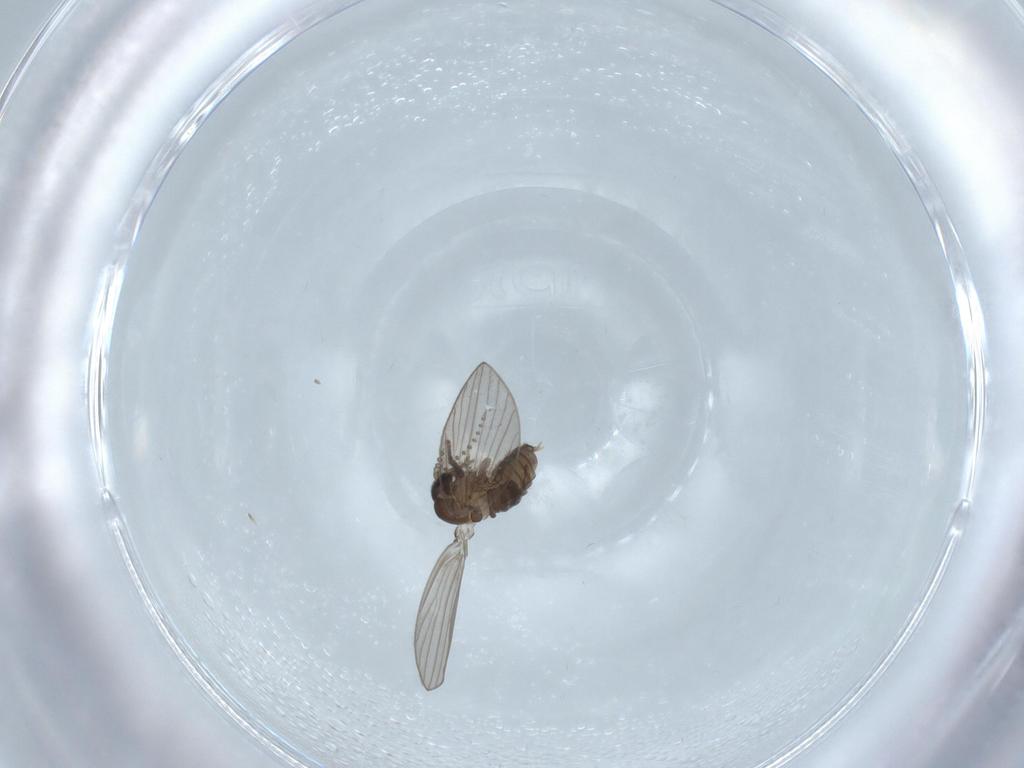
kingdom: Animalia
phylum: Arthropoda
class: Insecta
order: Diptera
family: Psychodidae
